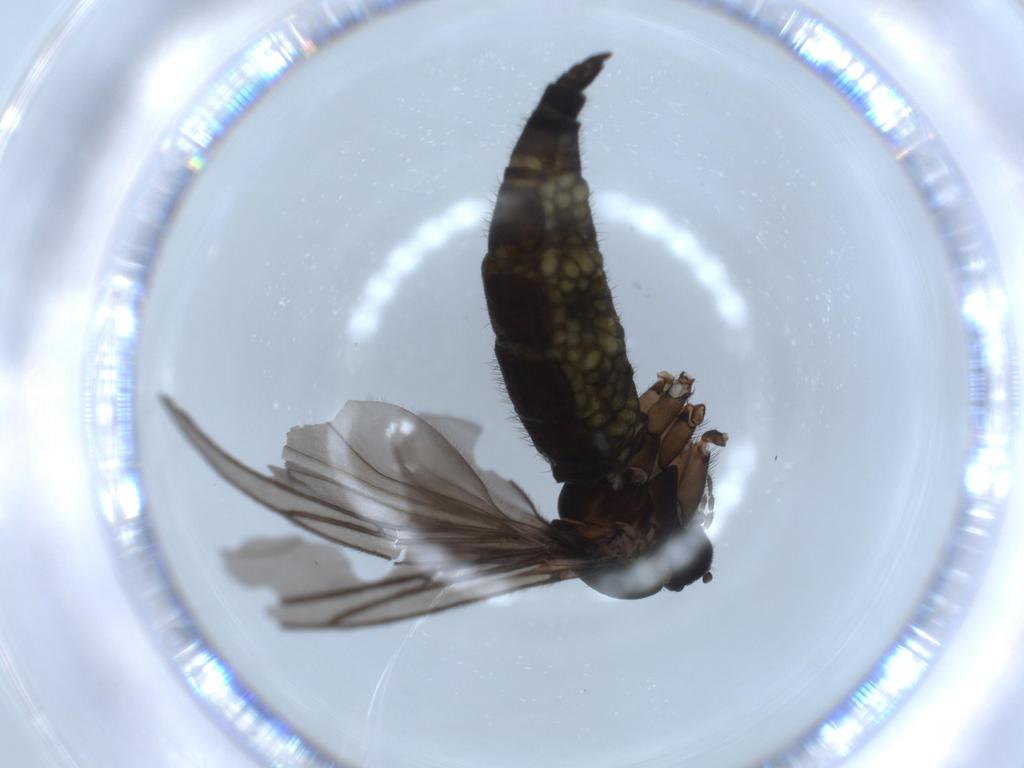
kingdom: Animalia
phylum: Arthropoda
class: Insecta
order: Diptera
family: Sciaridae
